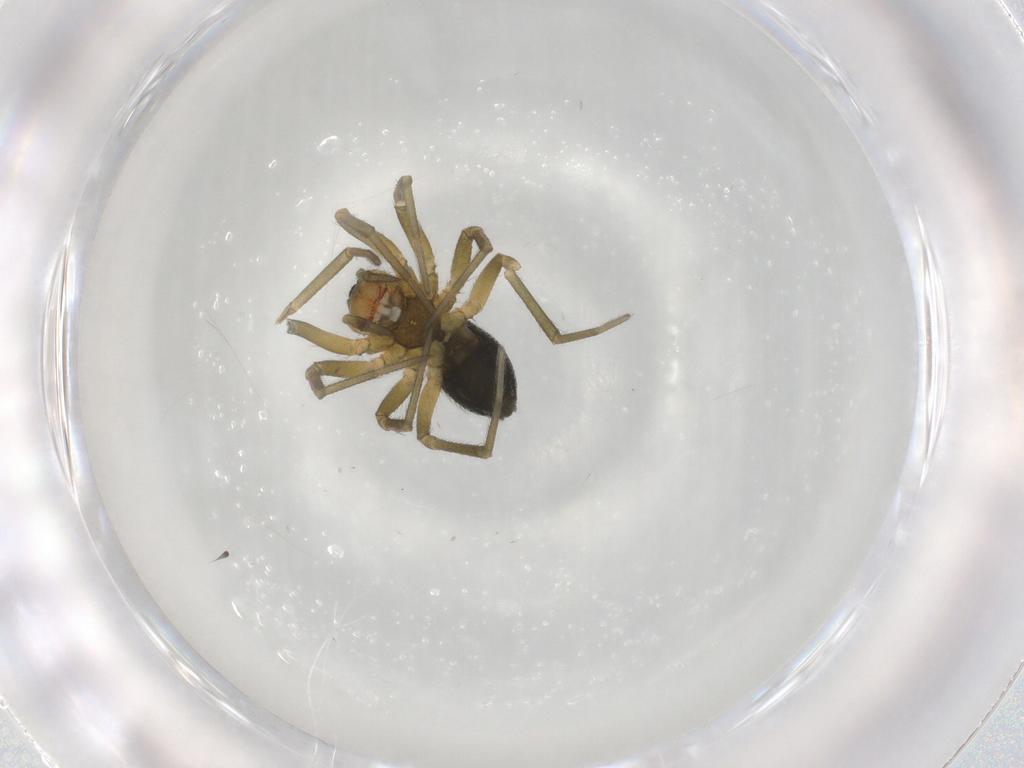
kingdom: Animalia
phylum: Arthropoda
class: Arachnida
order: Araneae
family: Linyphiidae
